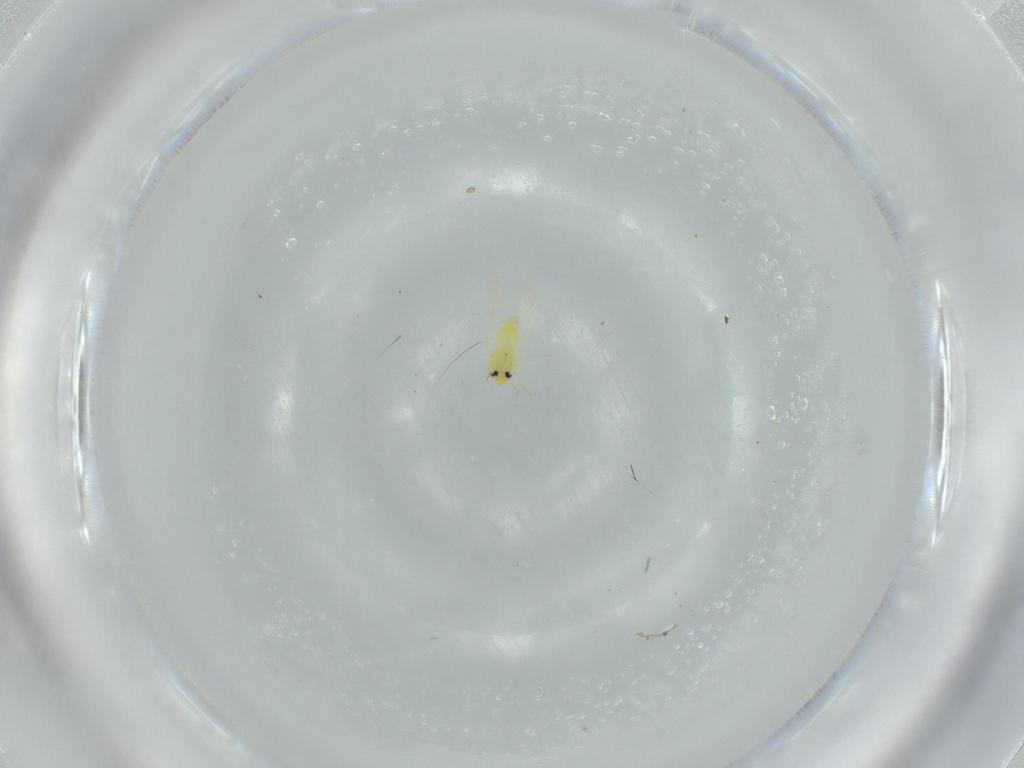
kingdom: Animalia
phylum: Arthropoda
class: Insecta
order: Hemiptera
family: Aleyrodidae
